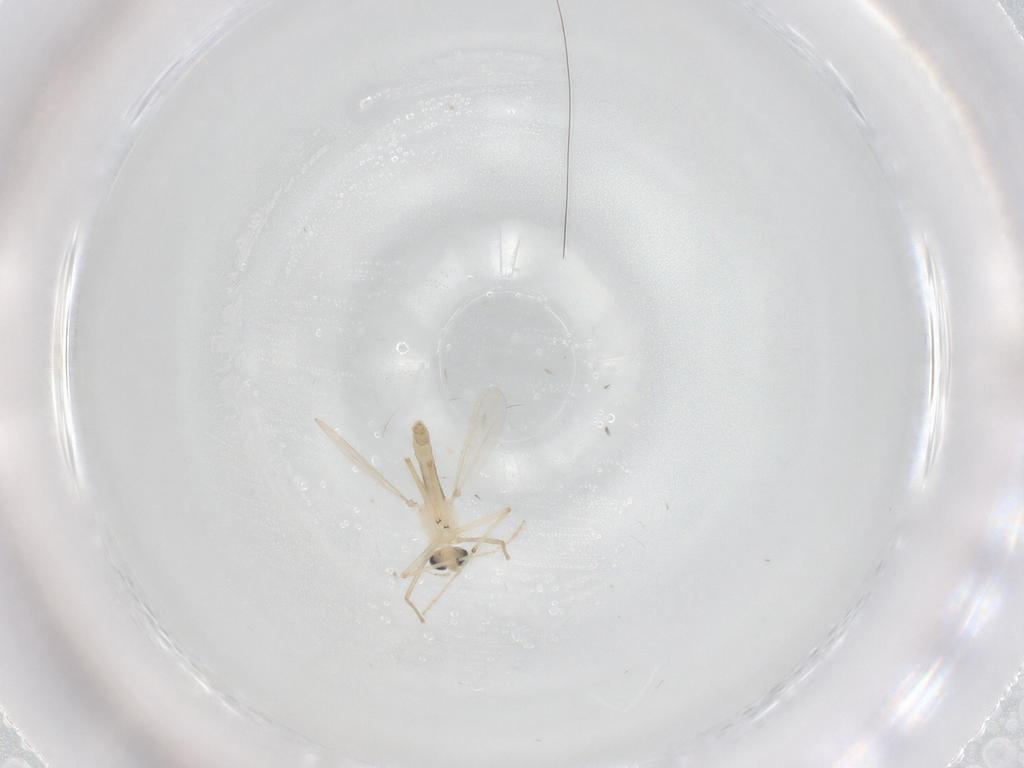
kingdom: Animalia
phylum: Arthropoda
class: Insecta
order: Diptera
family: Chironomidae
